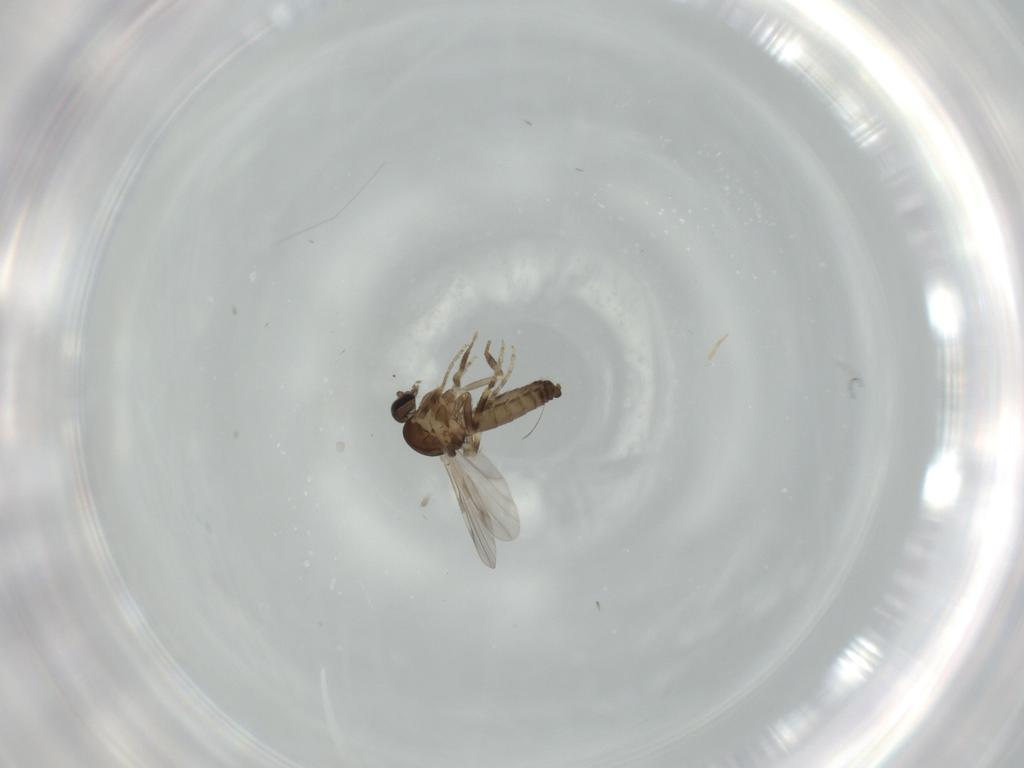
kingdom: Animalia
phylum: Arthropoda
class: Insecta
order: Diptera
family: Ceratopogonidae
